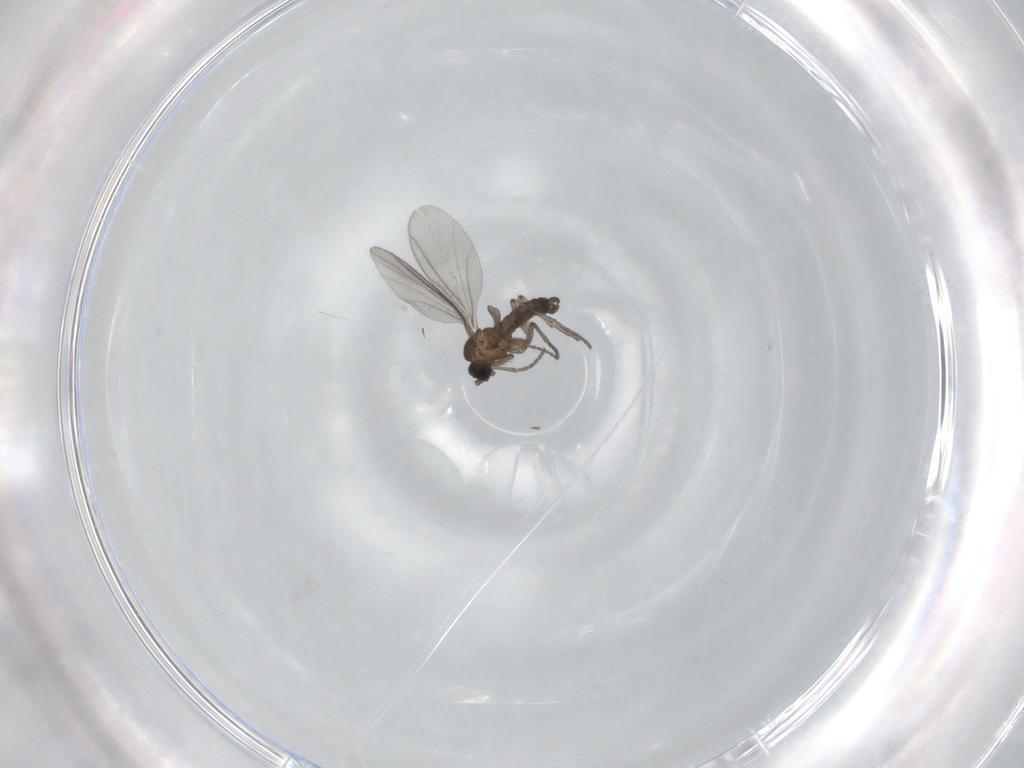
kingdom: Animalia
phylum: Arthropoda
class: Insecta
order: Diptera
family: Sciaridae
